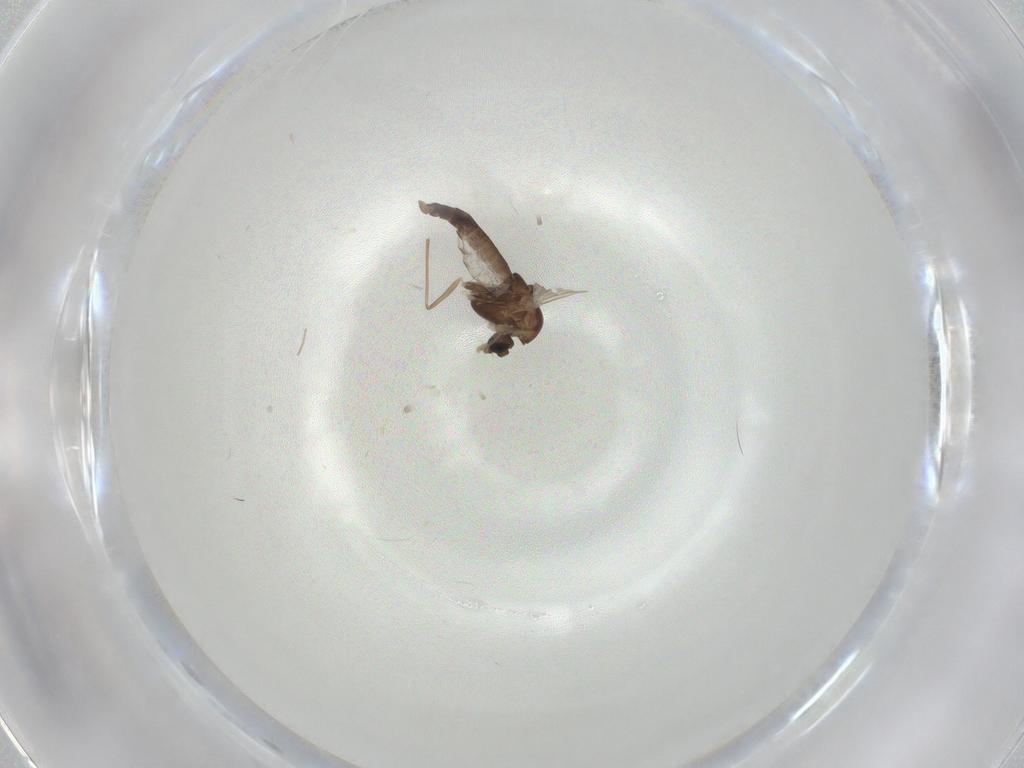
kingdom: Animalia
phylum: Arthropoda
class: Insecta
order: Diptera
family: Chironomidae
